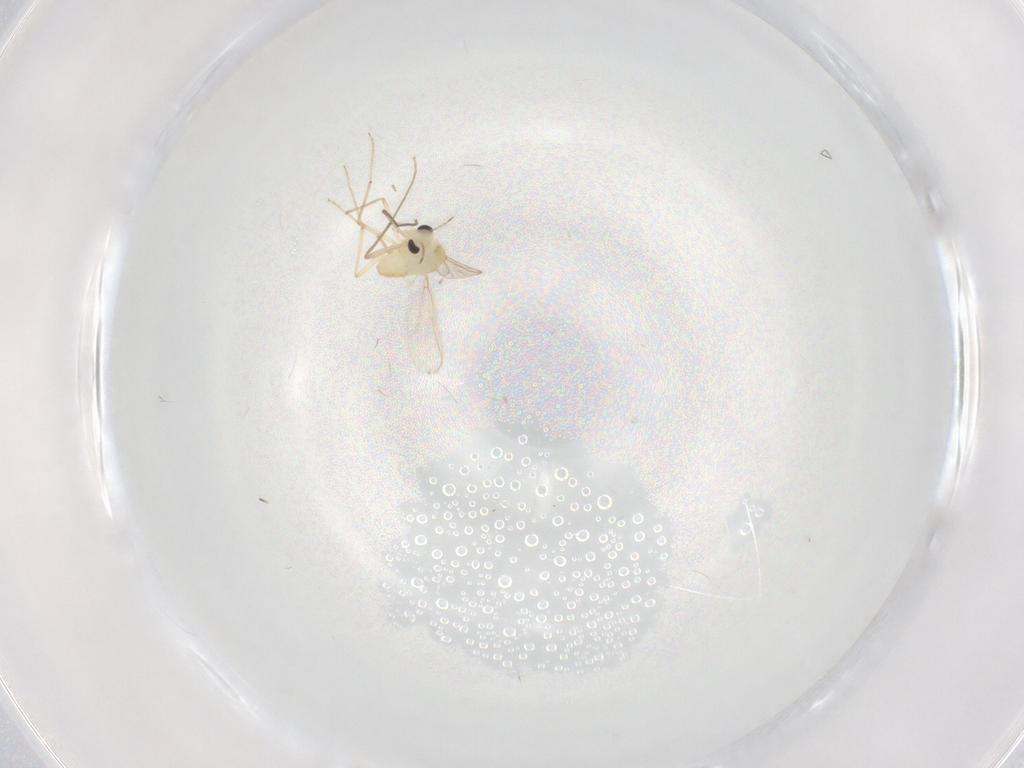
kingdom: Animalia
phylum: Arthropoda
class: Insecta
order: Diptera
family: Chironomidae
